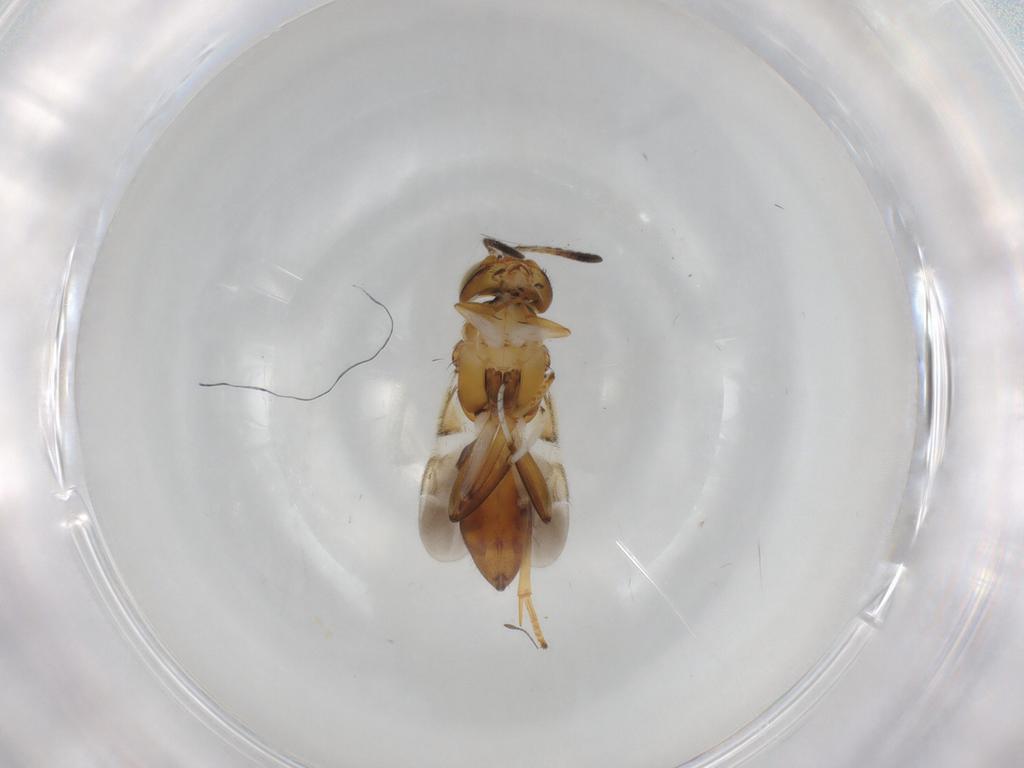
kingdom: Animalia
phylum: Arthropoda
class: Insecta
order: Hymenoptera
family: Encyrtidae
